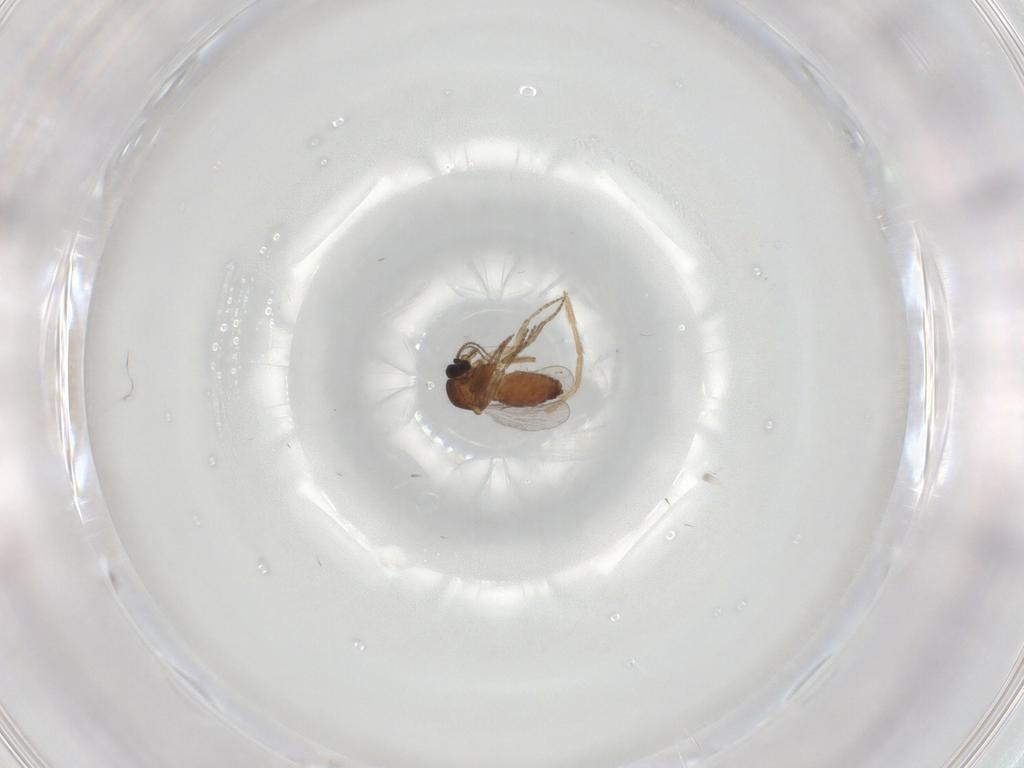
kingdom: Animalia
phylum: Arthropoda
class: Insecta
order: Diptera
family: Chironomidae
